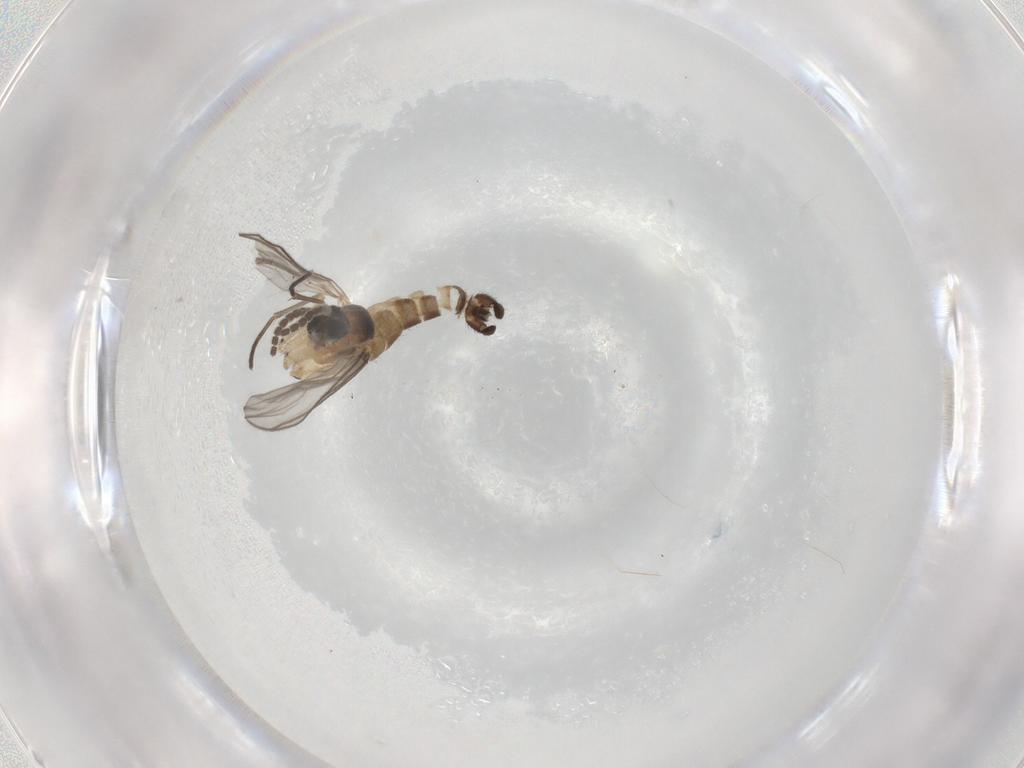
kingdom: Animalia
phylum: Arthropoda
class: Insecta
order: Diptera
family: Sciaridae
